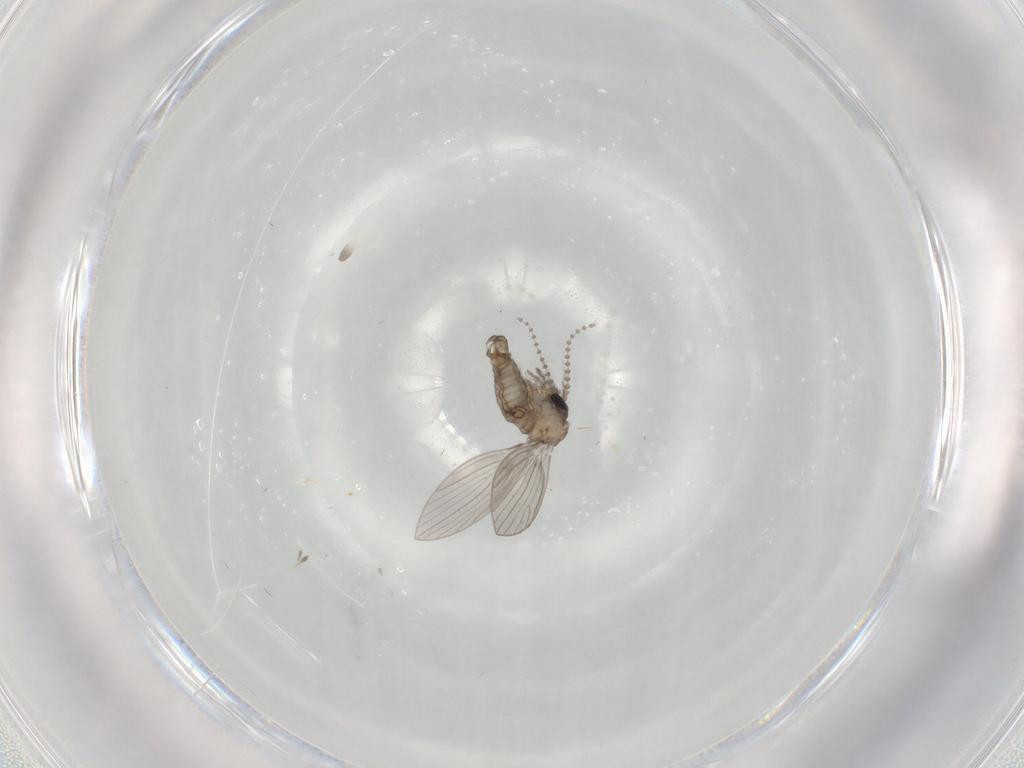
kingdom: Animalia
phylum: Arthropoda
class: Insecta
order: Diptera
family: Psychodidae
